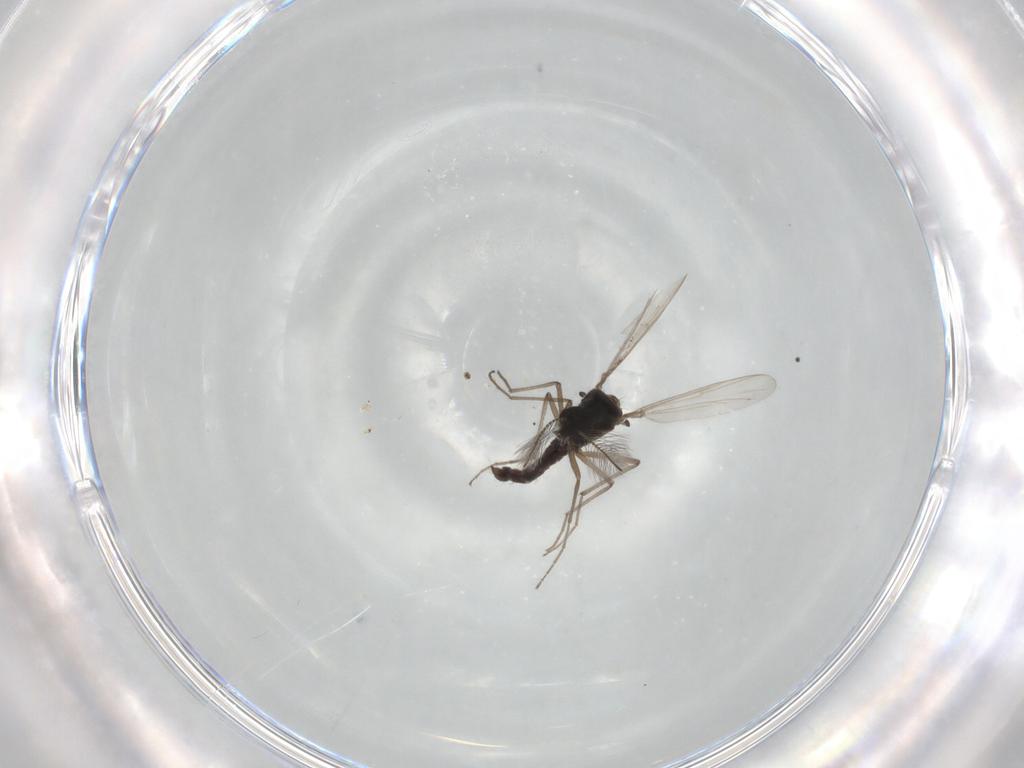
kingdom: Animalia
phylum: Arthropoda
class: Insecta
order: Diptera
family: Chironomidae
